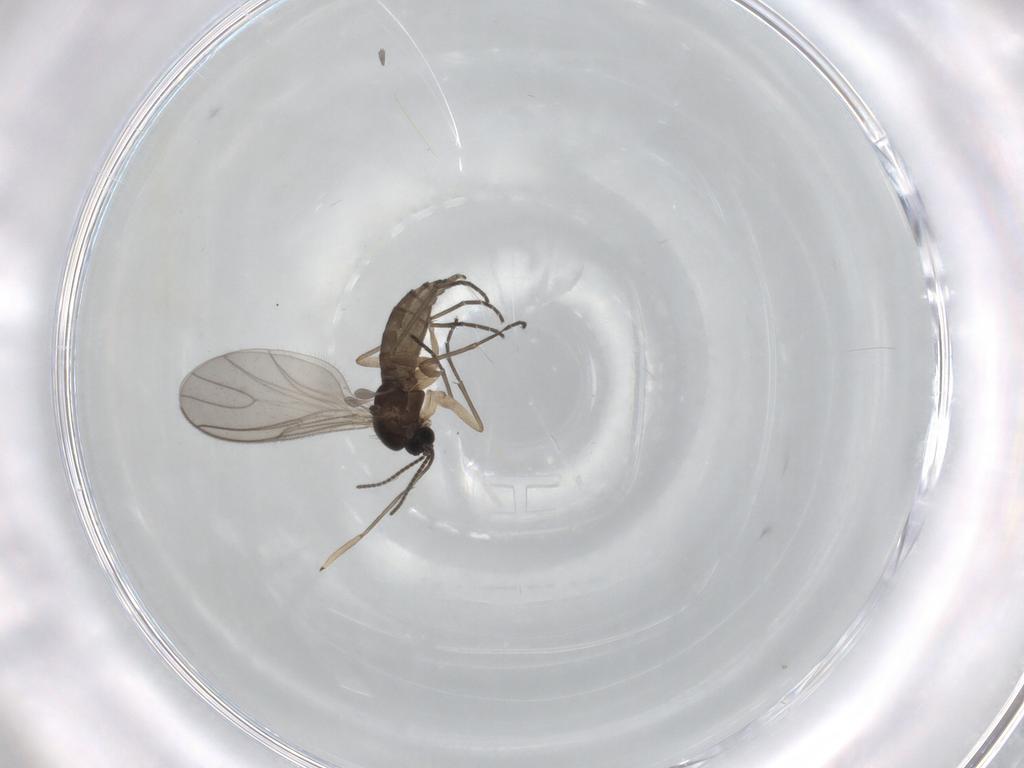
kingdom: Animalia
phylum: Arthropoda
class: Insecta
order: Diptera
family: Sciaridae
